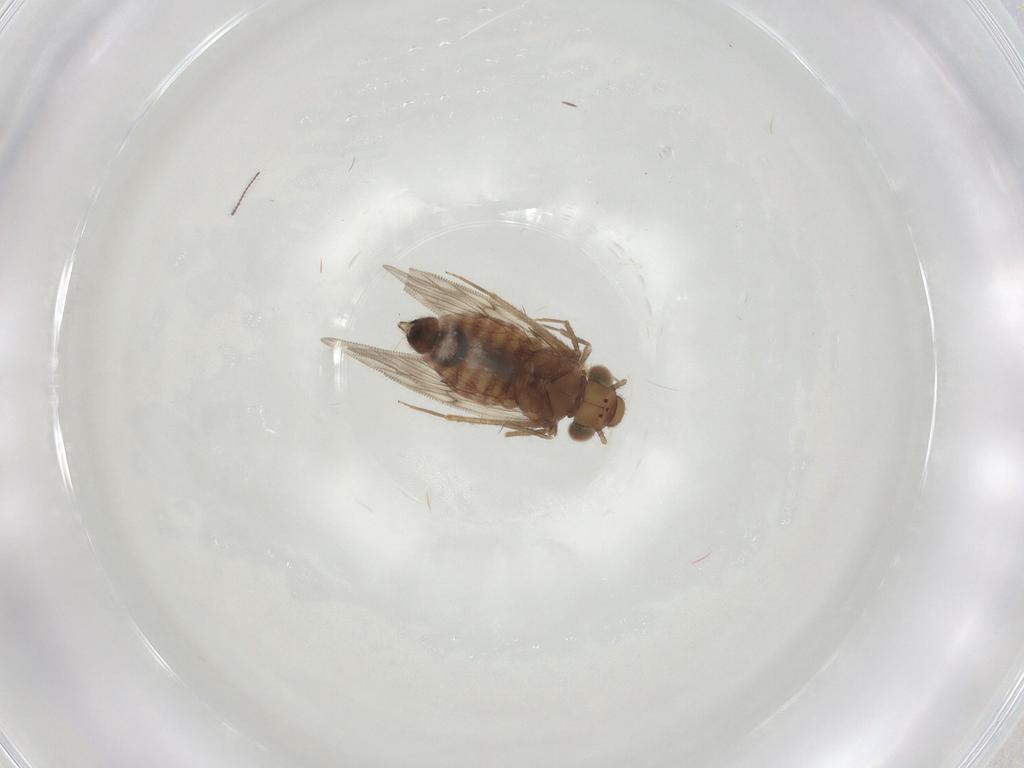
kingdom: Animalia
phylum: Arthropoda
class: Insecta
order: Psocodea
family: Lepidopsocidae
